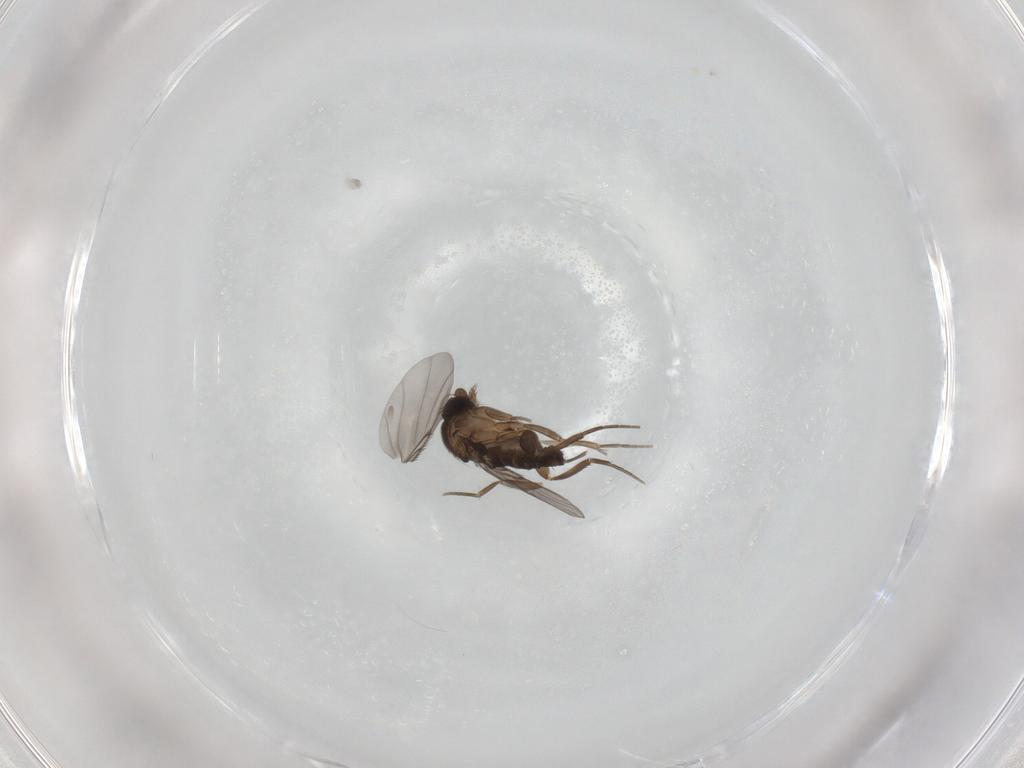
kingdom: Animalia
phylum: Arthropoda
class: Insecta
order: Diptera
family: Phoridae
